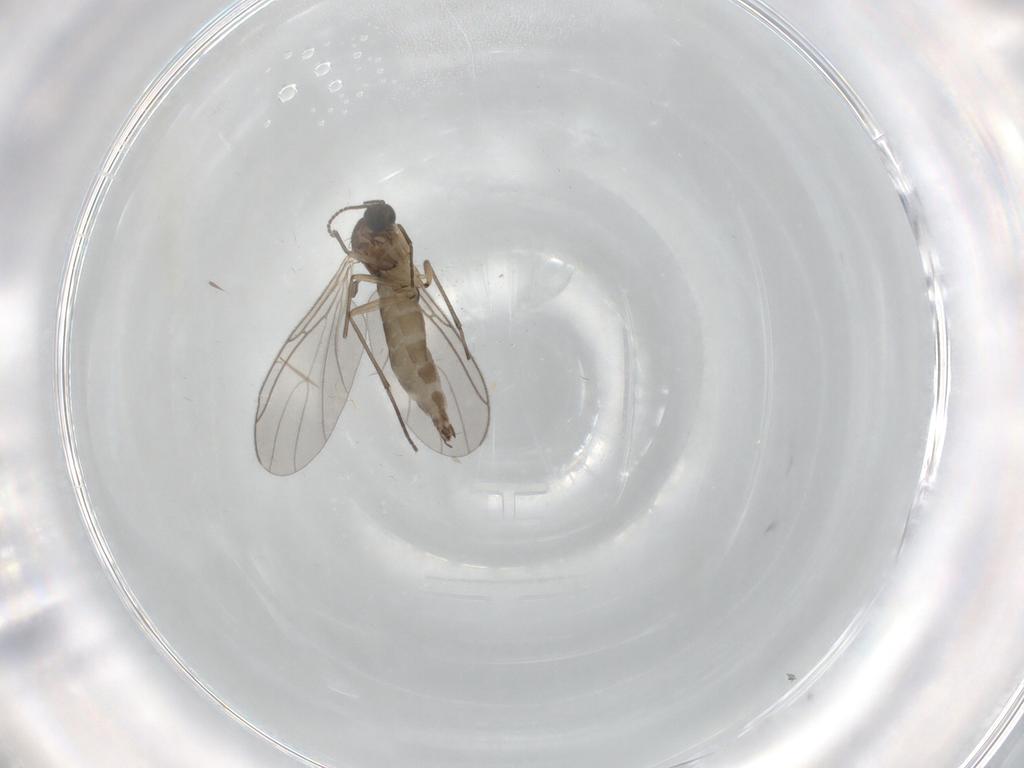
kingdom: Animalia
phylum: Arthropoda
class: Insecta
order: Diptera
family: Sciaridae
